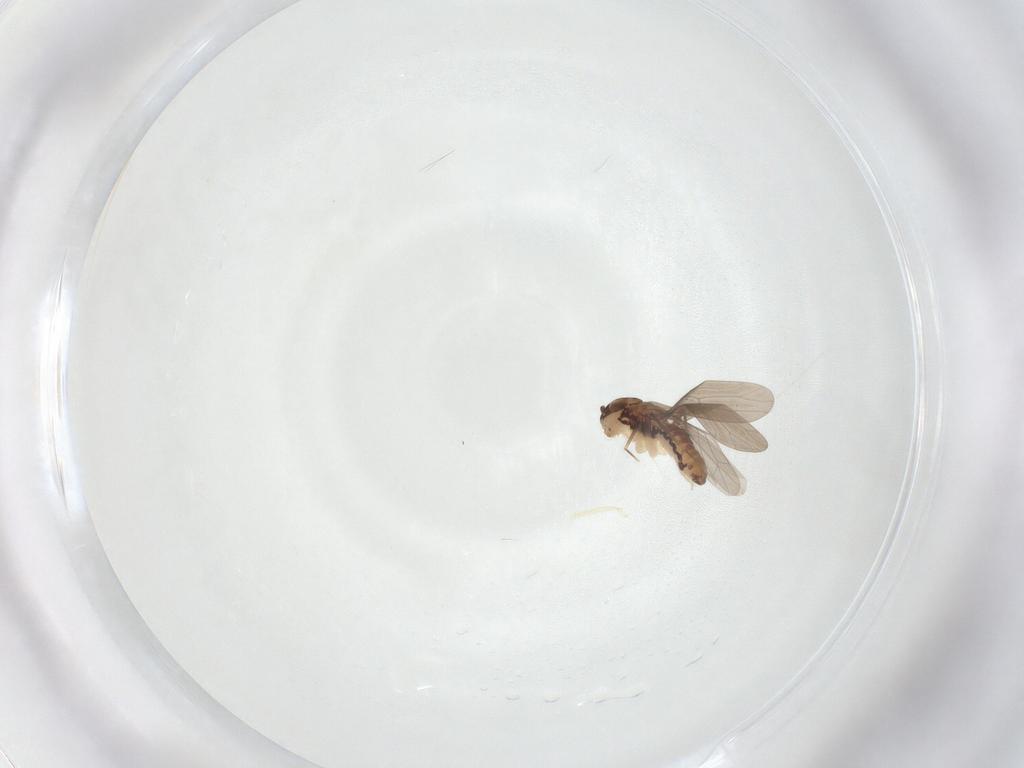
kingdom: Animalia
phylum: Arthropoda
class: Insecta
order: Psocodea
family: Lepidopsocidae
